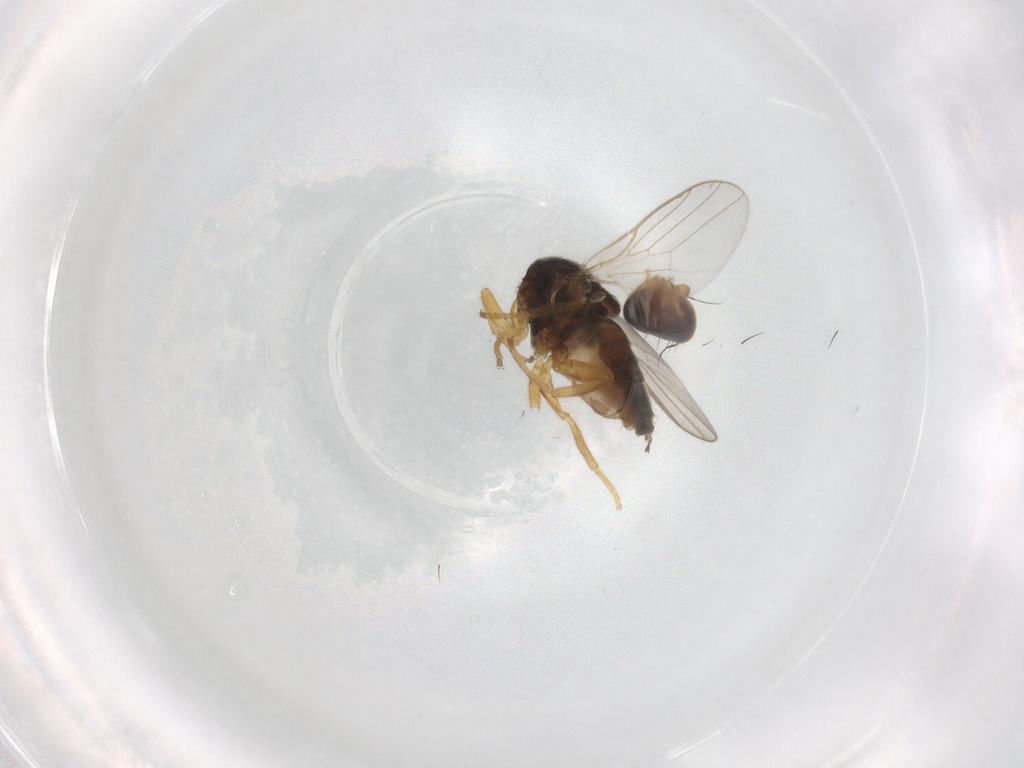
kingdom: Animalia
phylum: Arthropoda
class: Insecta
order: Diptera
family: Chloropidae
